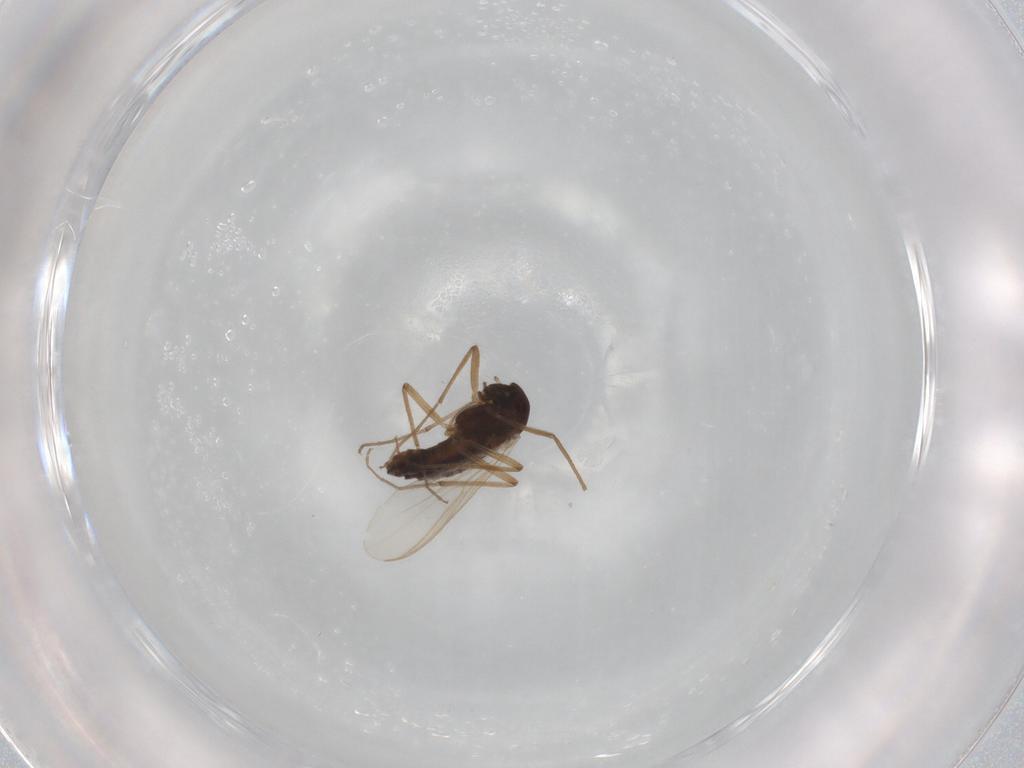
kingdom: Animalia
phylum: Arthropoda
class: Insecta
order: Diptera
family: Chironomidae
